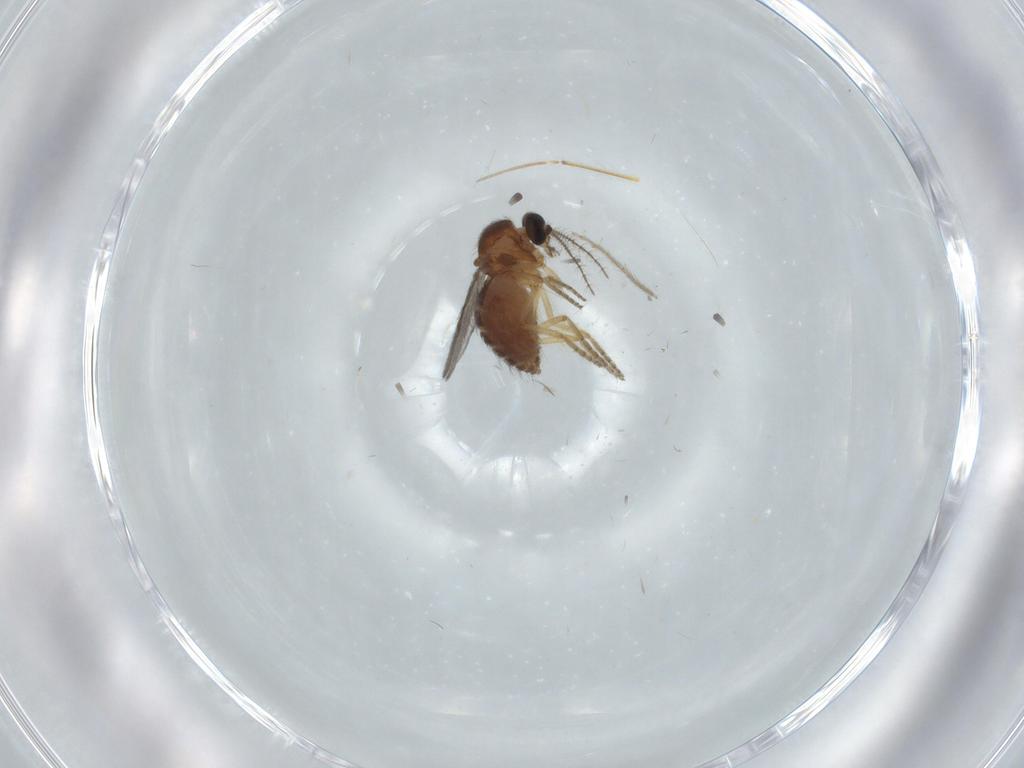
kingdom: Animalia
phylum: Arthropoda
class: Insecta
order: Diptera
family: Ceratopogonidae
